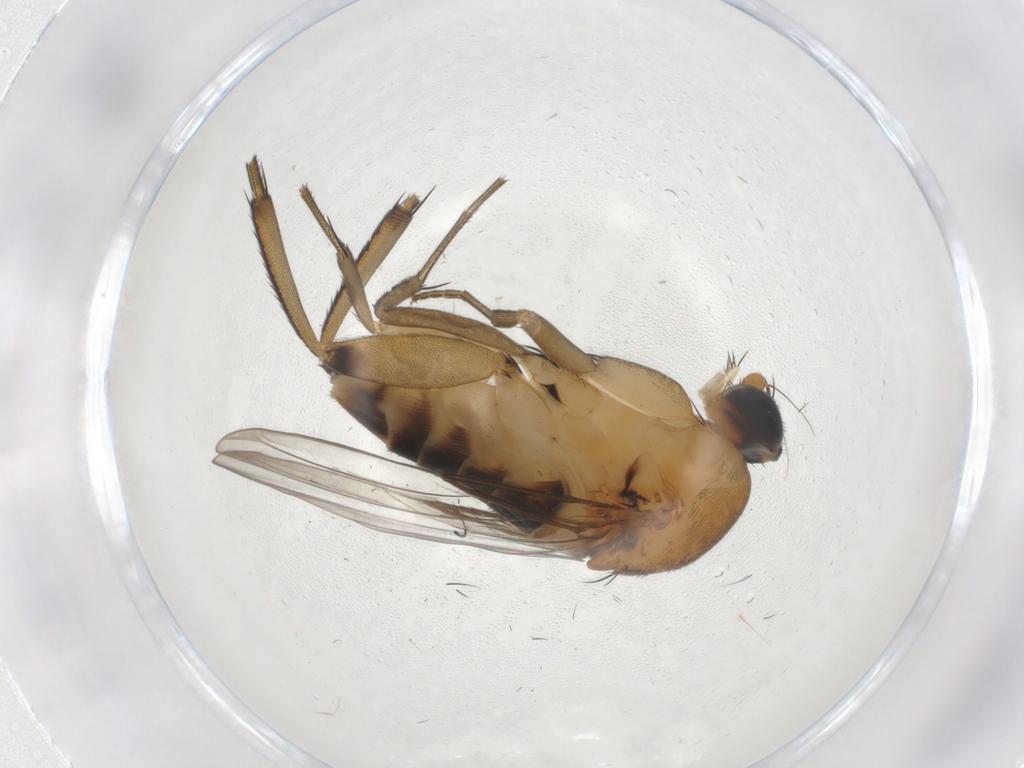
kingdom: Animalia
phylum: Arthropoda
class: Insecta
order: Diptera
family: Phoridae
